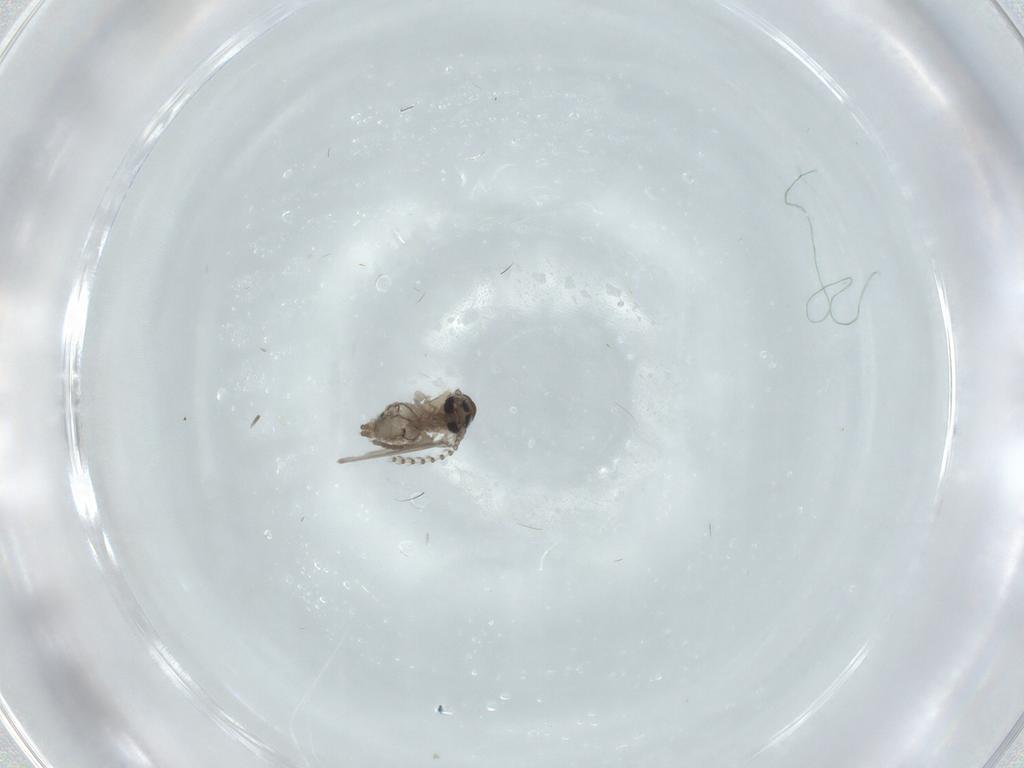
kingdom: Animalia
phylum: Arthropoda
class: Insecta
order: Diptera
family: Psychodidae
